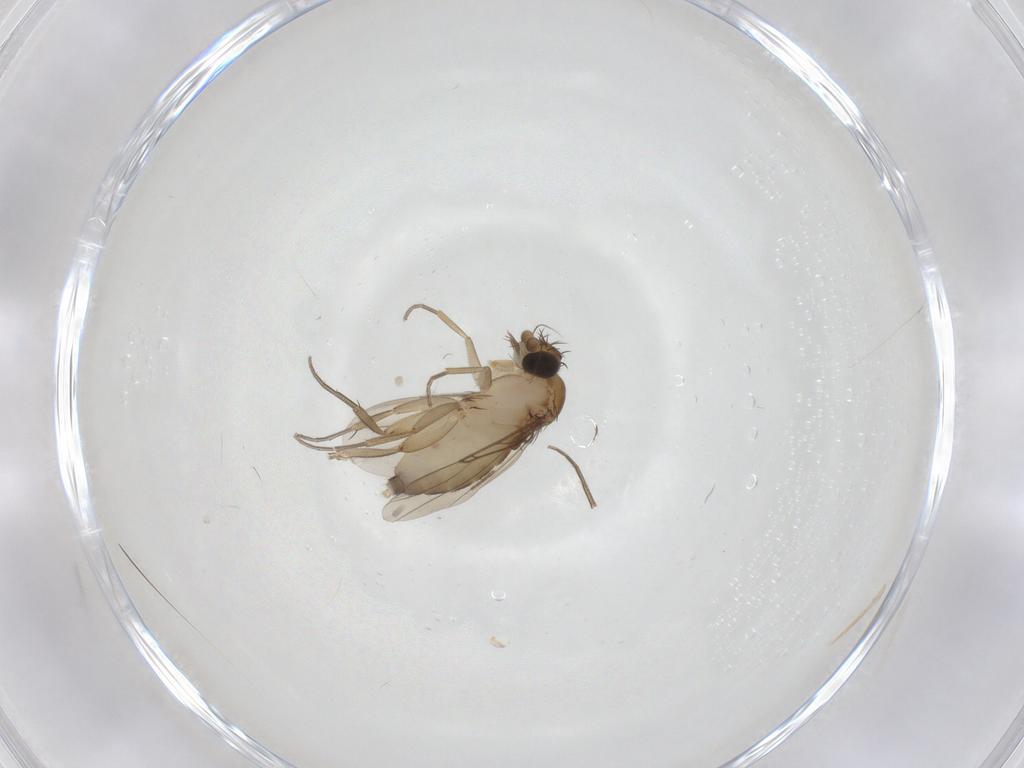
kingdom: Animalia
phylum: Arthropoda
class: Insecta
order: Diptera
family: Phoridae
